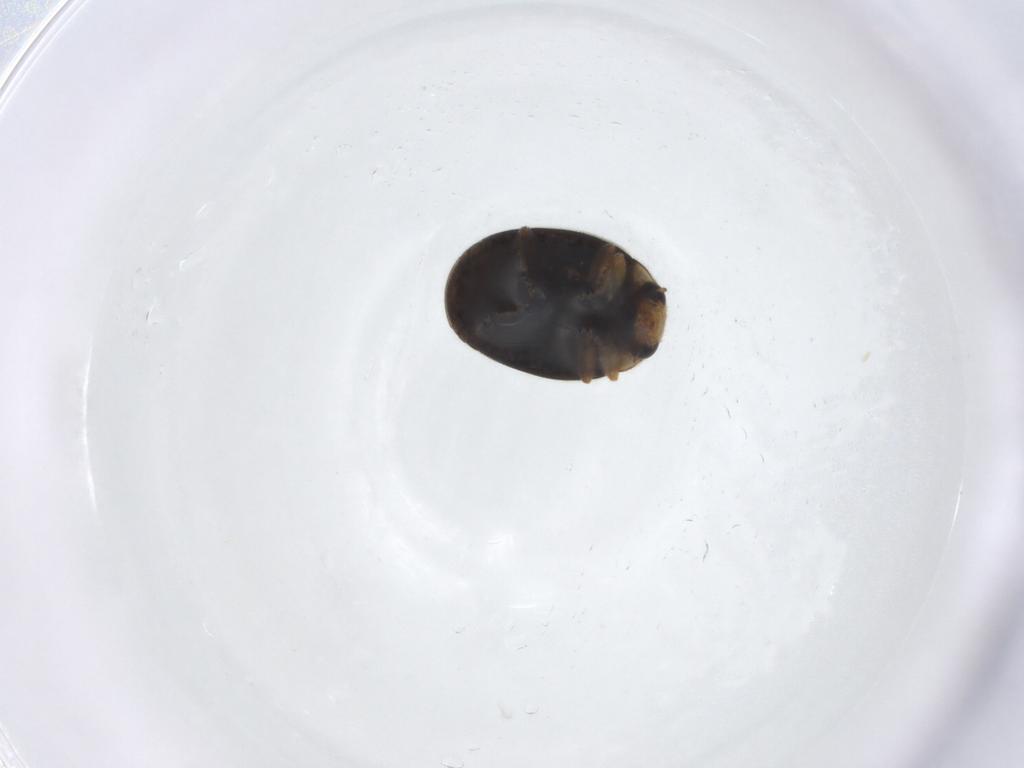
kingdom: Animalia
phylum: Arthropoda
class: Insecta
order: Coleoptera
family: Coccinellidae
